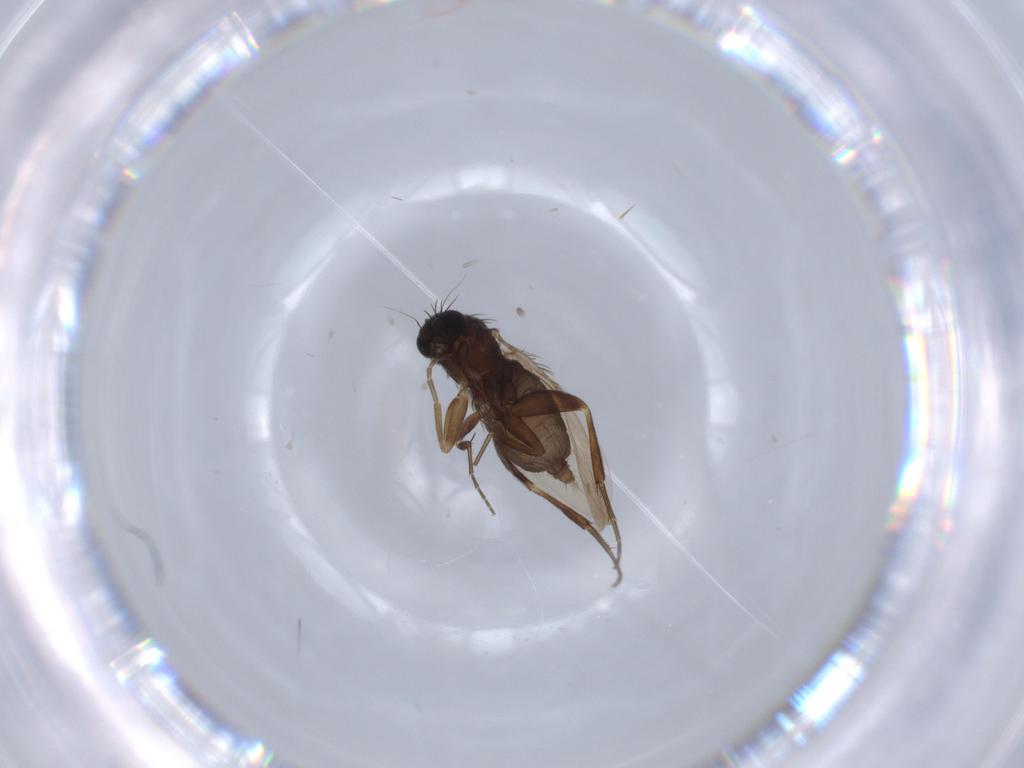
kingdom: Animalia
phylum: Arthropoda
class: Insecta
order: Diptera
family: Phoridae
